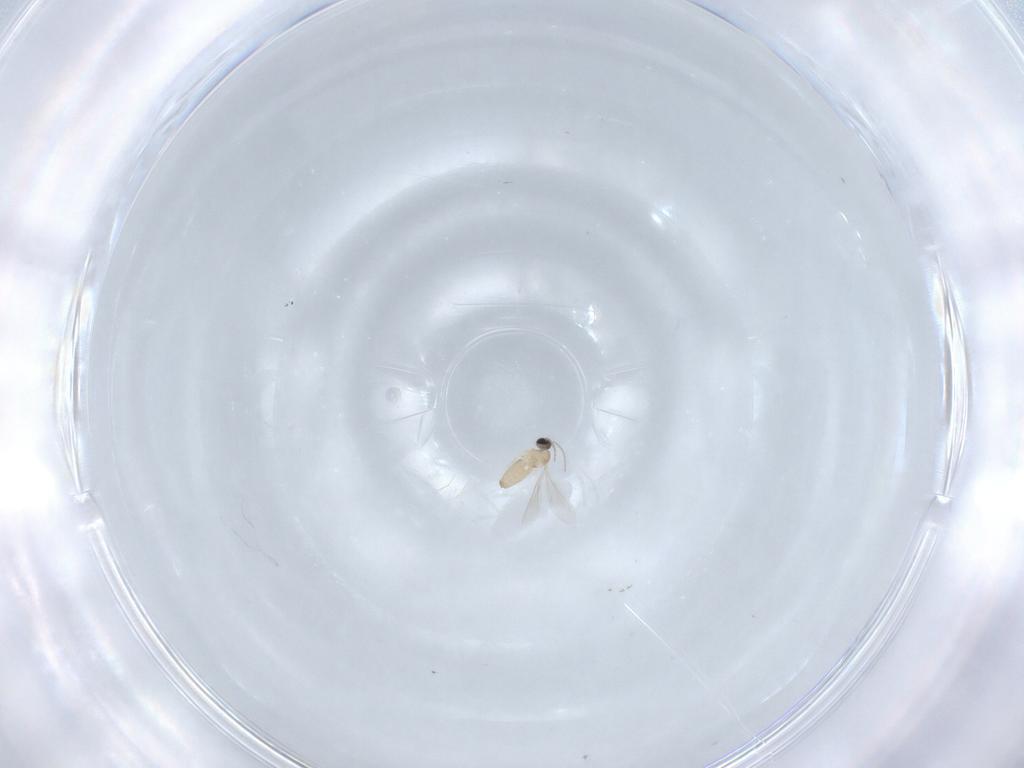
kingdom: Animalia
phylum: Arthropoda
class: Insecta
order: Diptera
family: Cecidomyiidae
